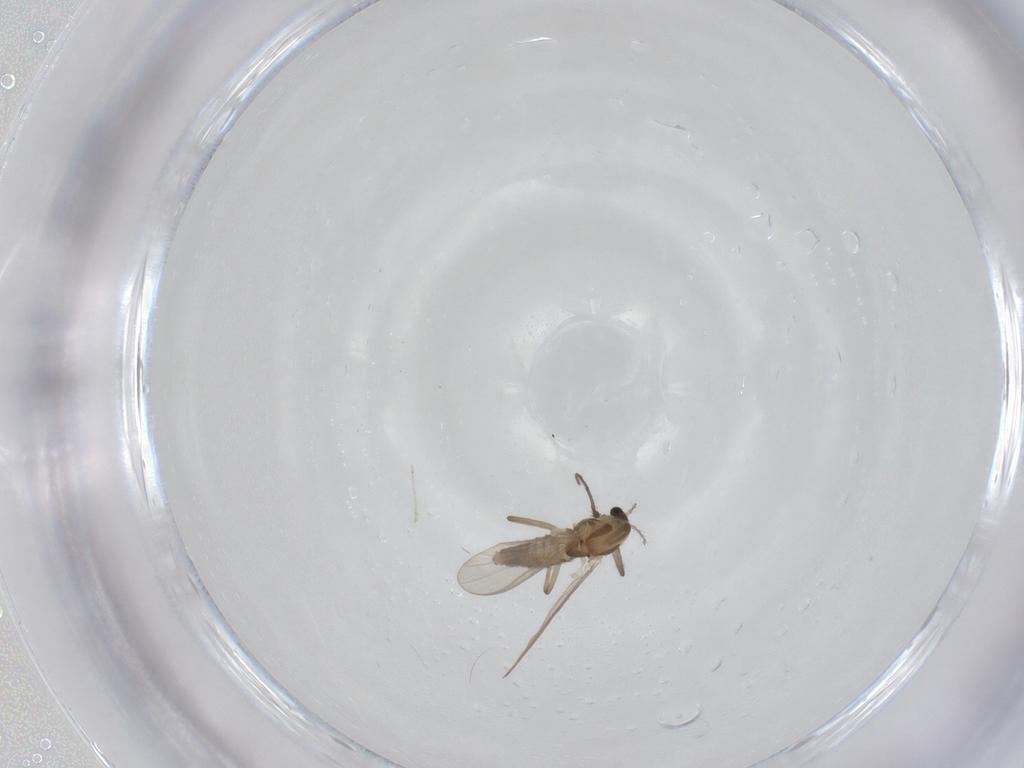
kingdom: Animalia
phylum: Arthropoda
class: Insecta
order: Diptera
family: Chironomidae
